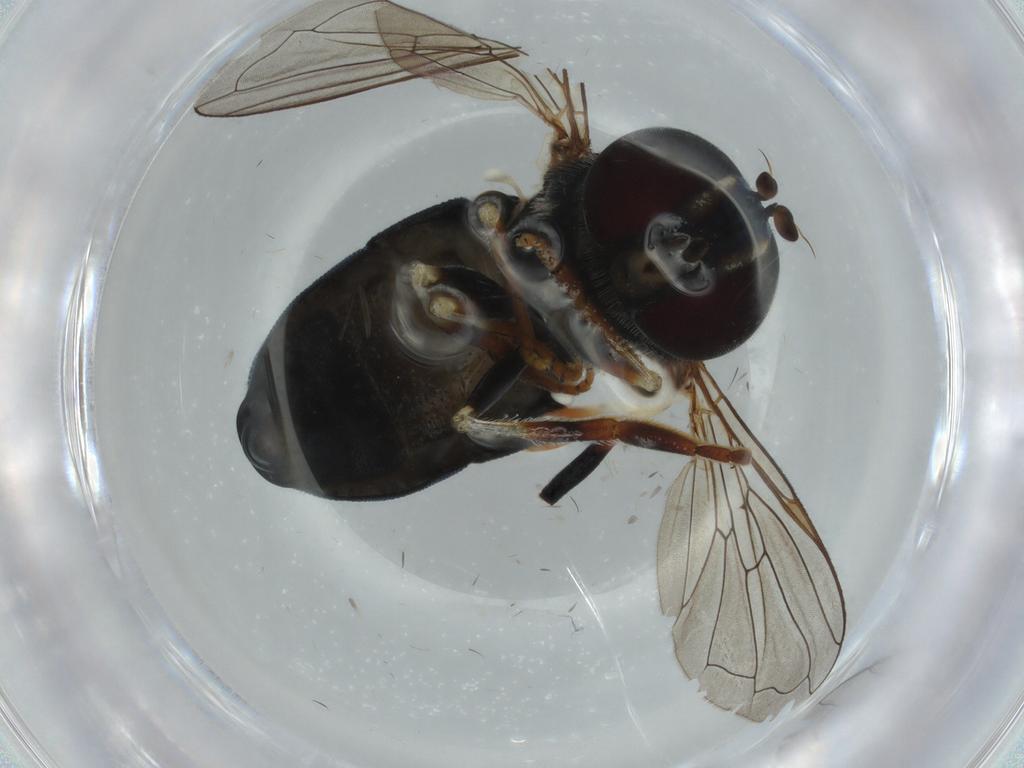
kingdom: Animalia
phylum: Arthropoda
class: Insecta
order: Diptera
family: Syrphidae
